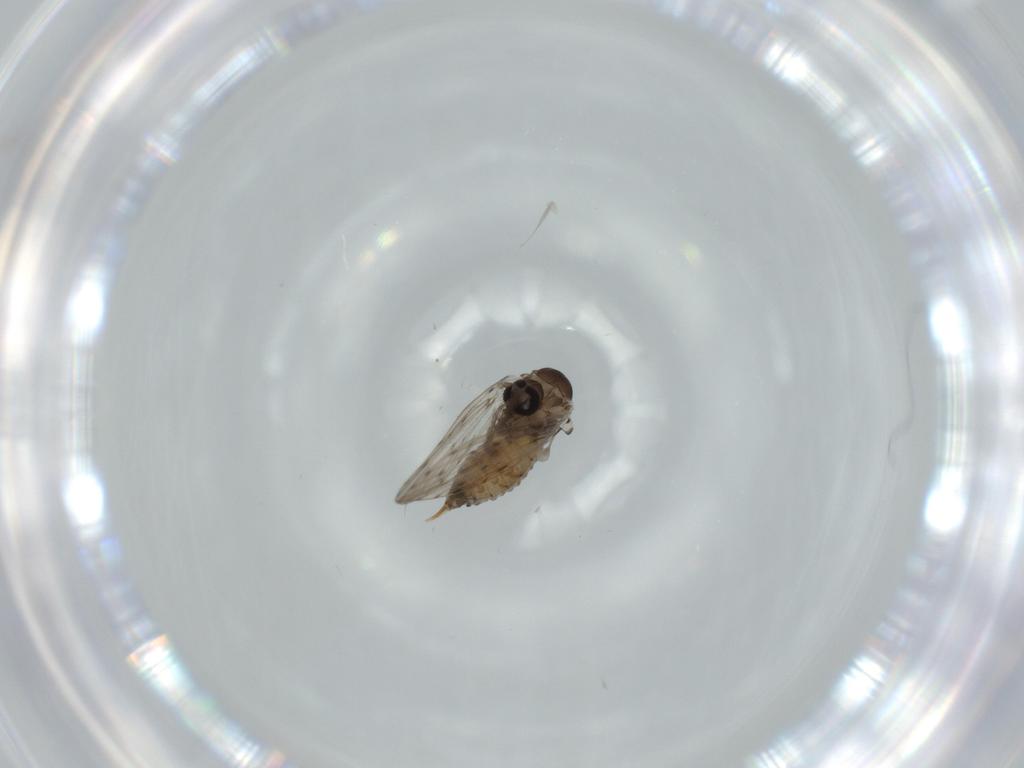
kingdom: Animalia
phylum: Arthropoda
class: Insecta
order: Diptera
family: Psychodidae
